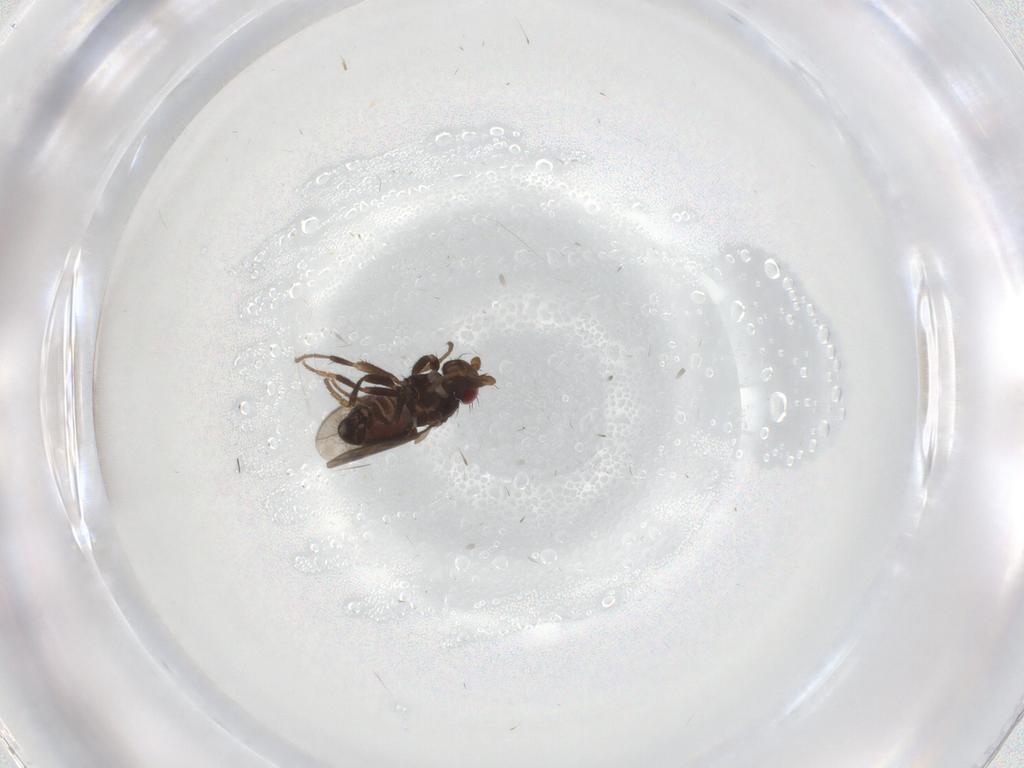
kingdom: Animalia
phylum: Arthropoda
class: Insecta
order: Diptera
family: Sphaeroceridae
